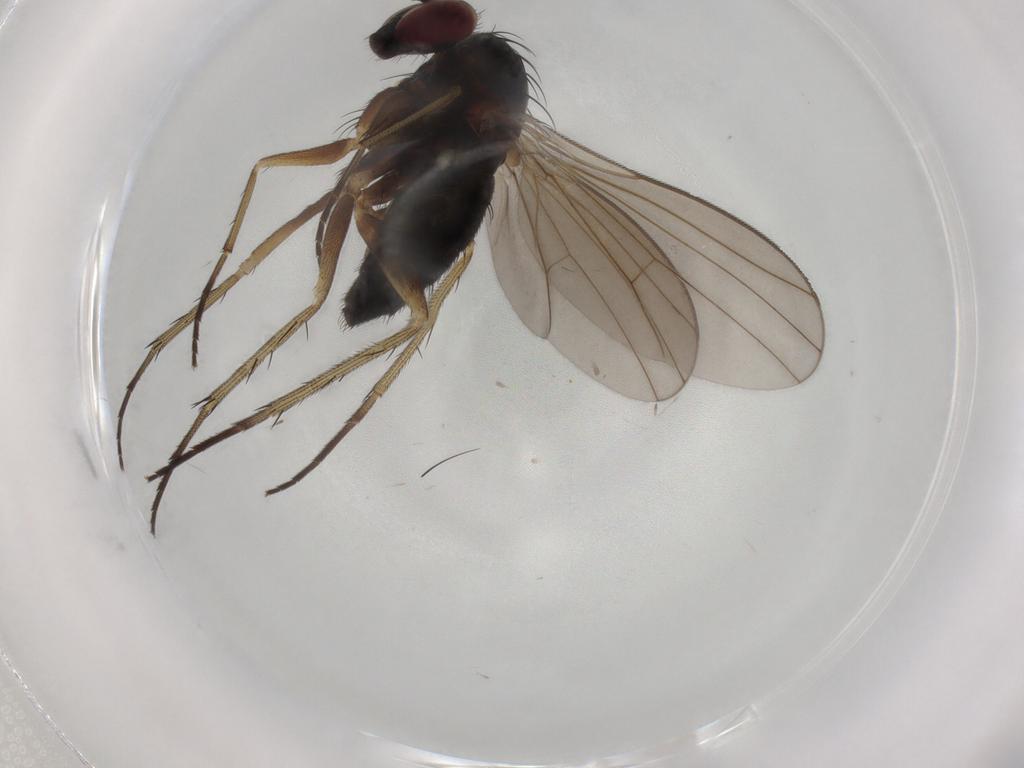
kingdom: Animalia
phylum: Arthropoda
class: Insecta
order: Diptera
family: Dolichopodidae
